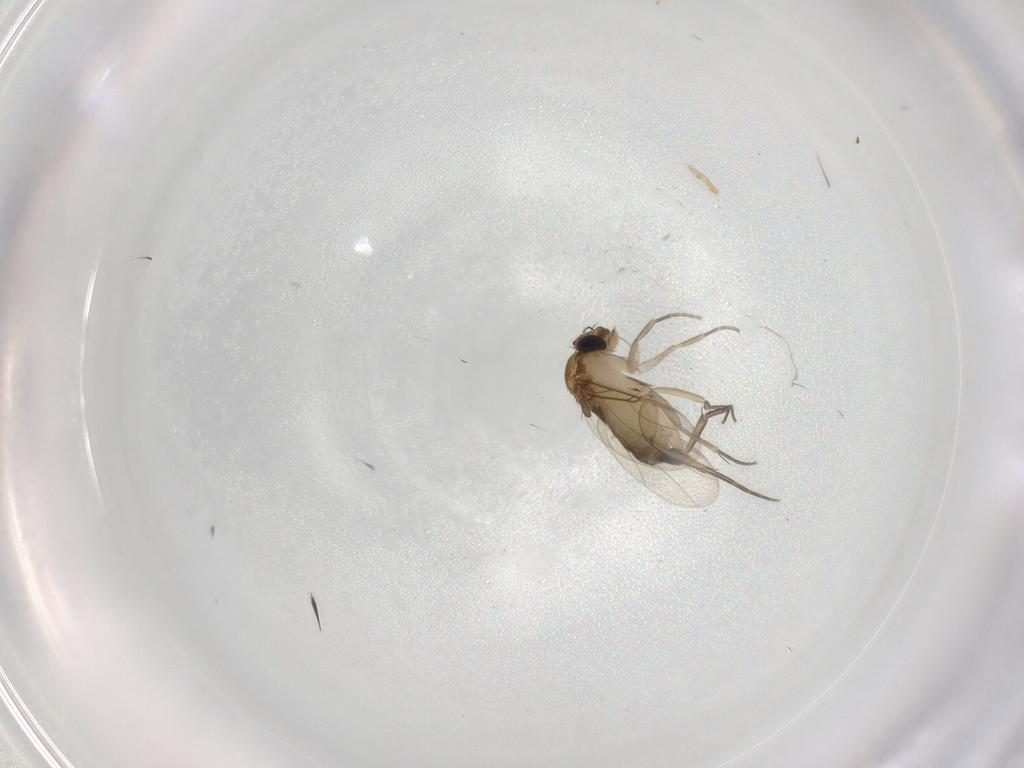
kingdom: Animalia
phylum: Arthropoda
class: Insecta
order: Diptera
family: Phoridae
